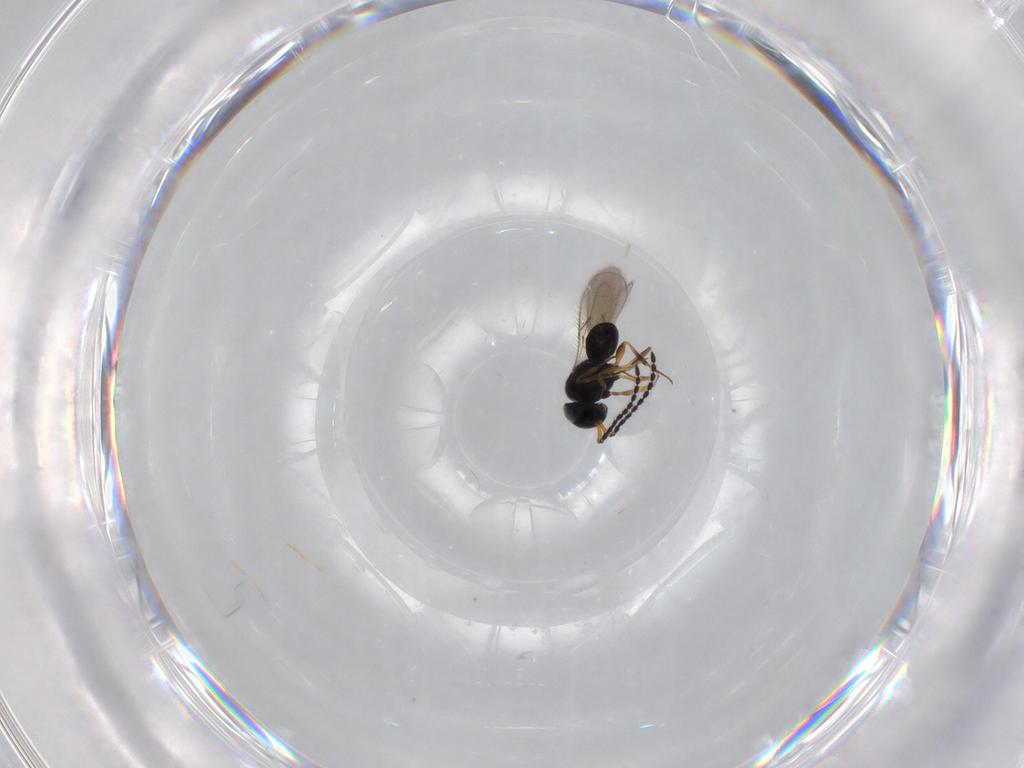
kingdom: Animalia
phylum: Arthropoda
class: Insecta
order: Hymenoptera
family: Scelionidae
